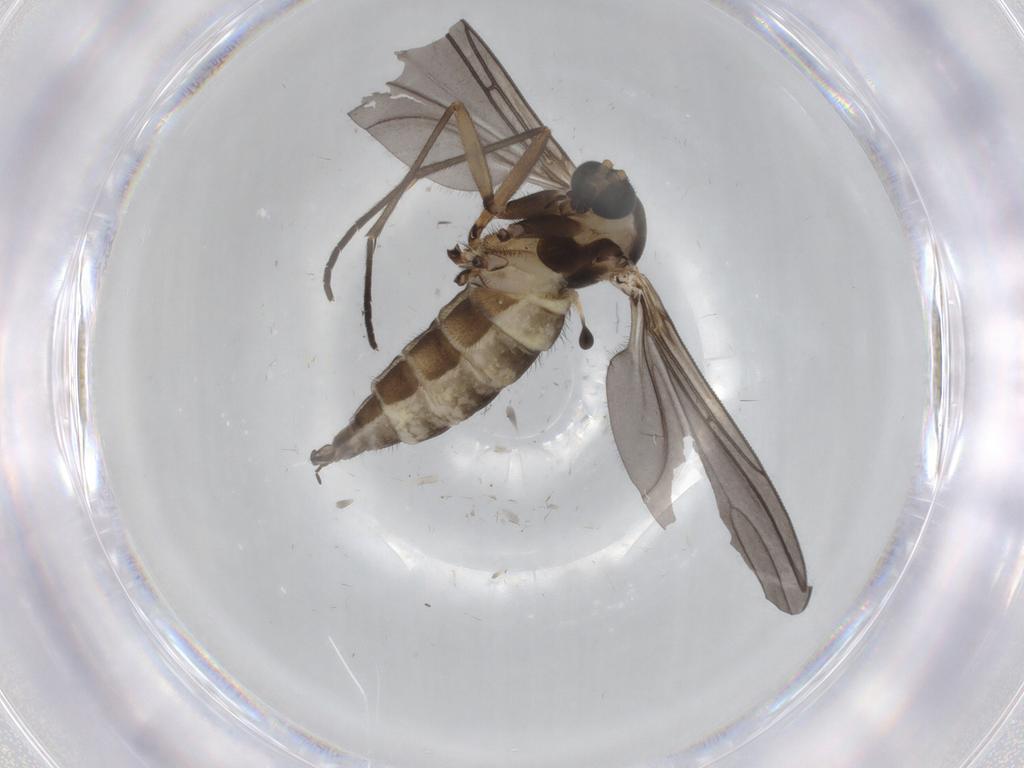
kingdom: Animalia
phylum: Arthropoda
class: Insecta
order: Diptera
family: Sciaridae
